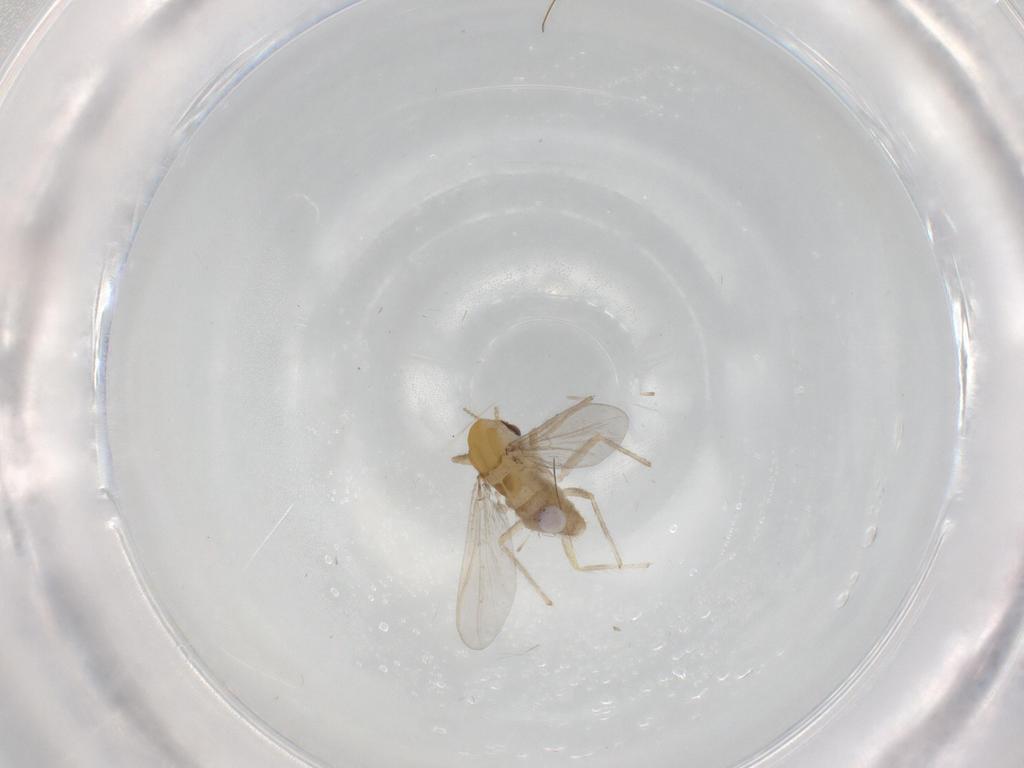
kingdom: Animalia
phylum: Arthropoda
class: Insecta
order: Diptera
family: Chironomidae
